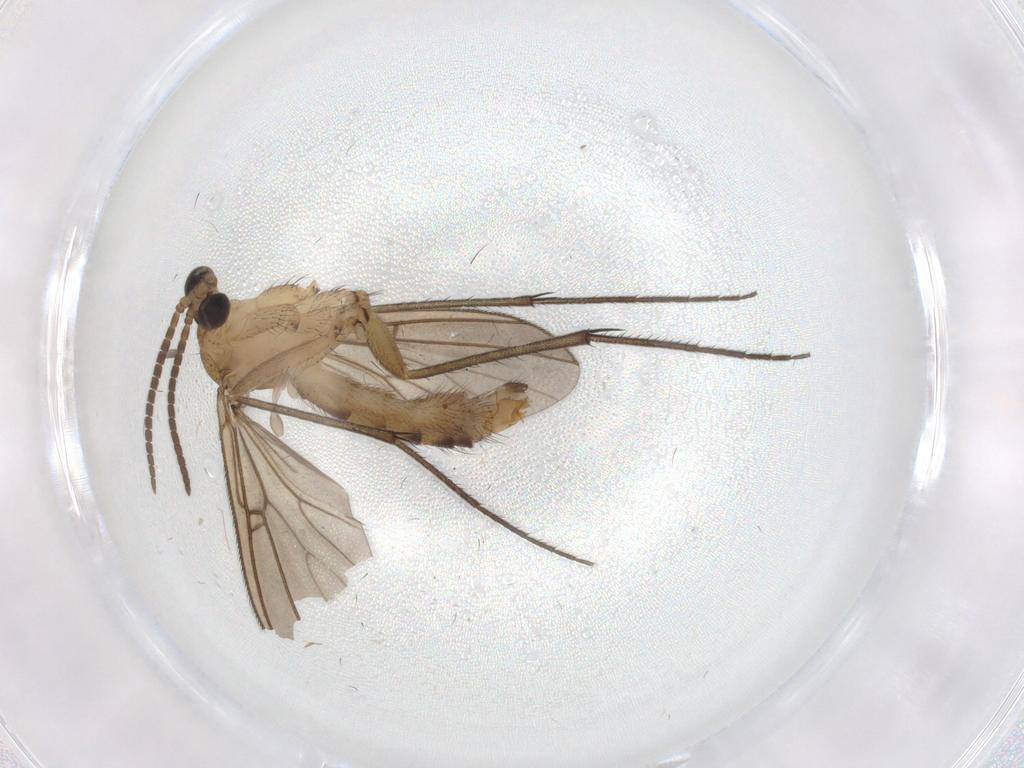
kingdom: Animalia
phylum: Arthropoda
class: Insecta
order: Diptera
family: Mycetophilidae
